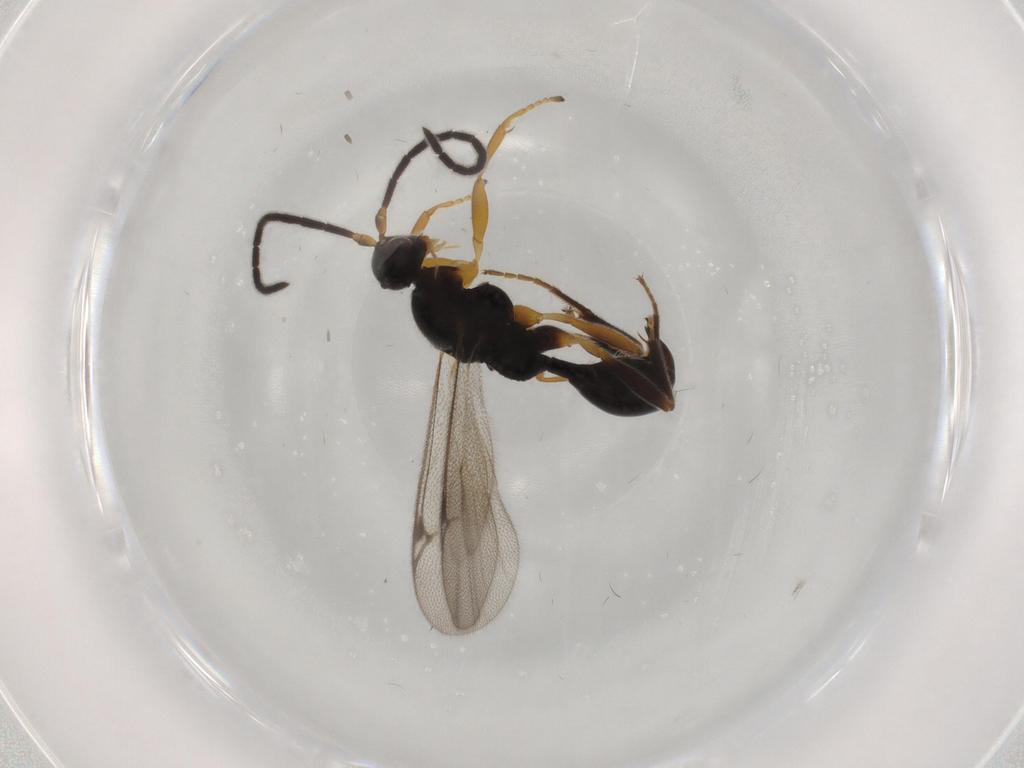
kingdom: Animalia
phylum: Arthropoda
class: Insecta
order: Hymenoptera
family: Proctotrupidae
